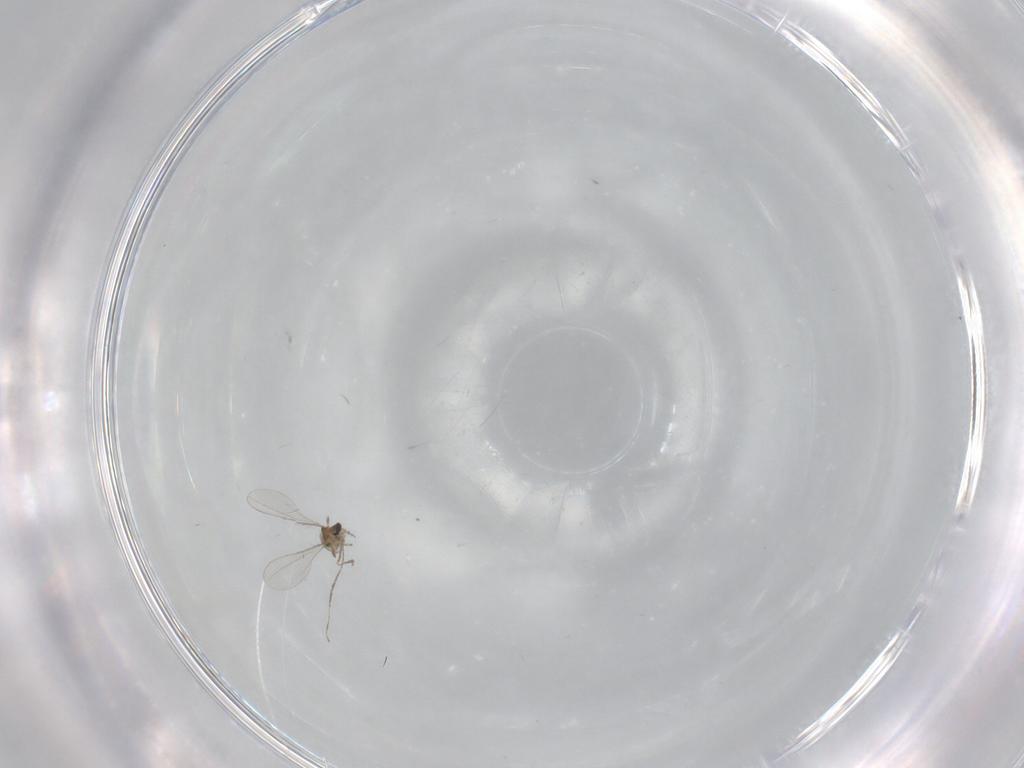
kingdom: Animalia
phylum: Arthropoda
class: Insecta
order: Diptera
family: Cecidomyiidae
